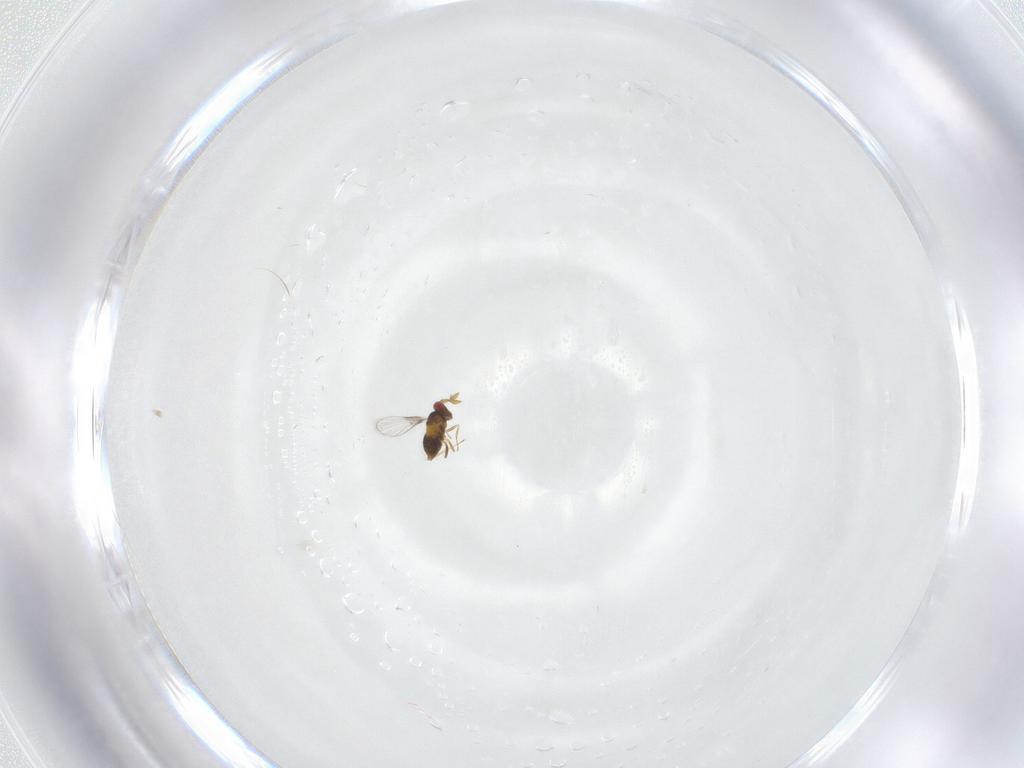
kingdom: Animalia
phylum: Arthropoda
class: Insecta
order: Hymenoptera
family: Trichogrammatidae
